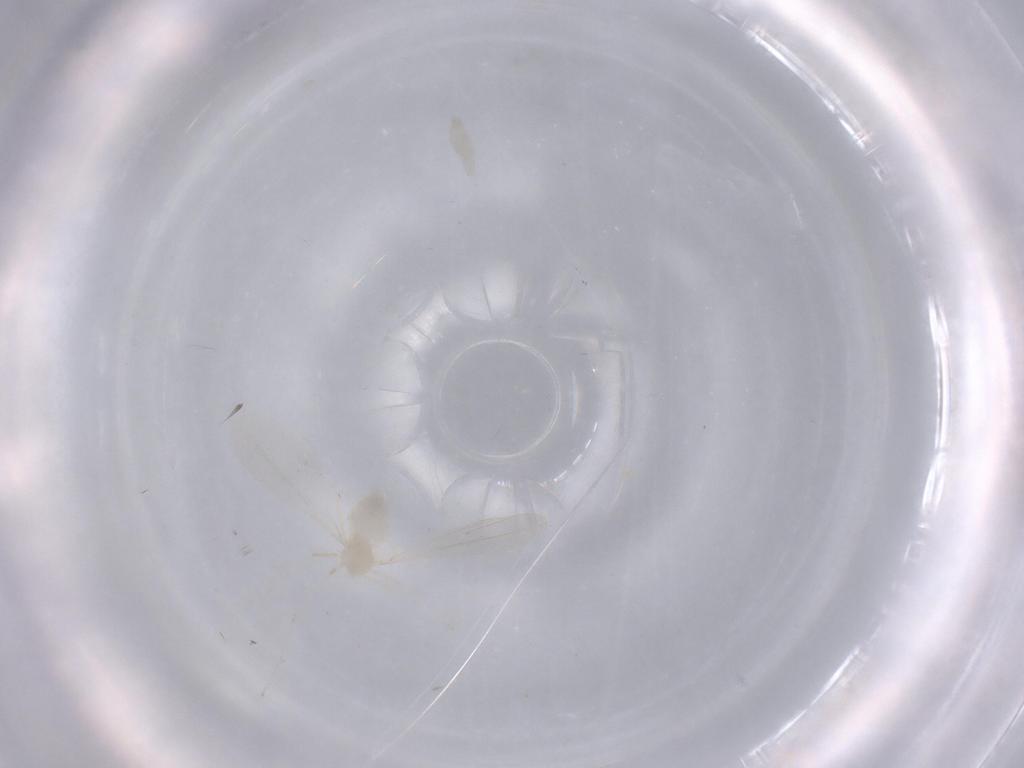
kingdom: Animalia
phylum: Arthropoda
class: Insecta
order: Diptera
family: Cecidomyiidae
